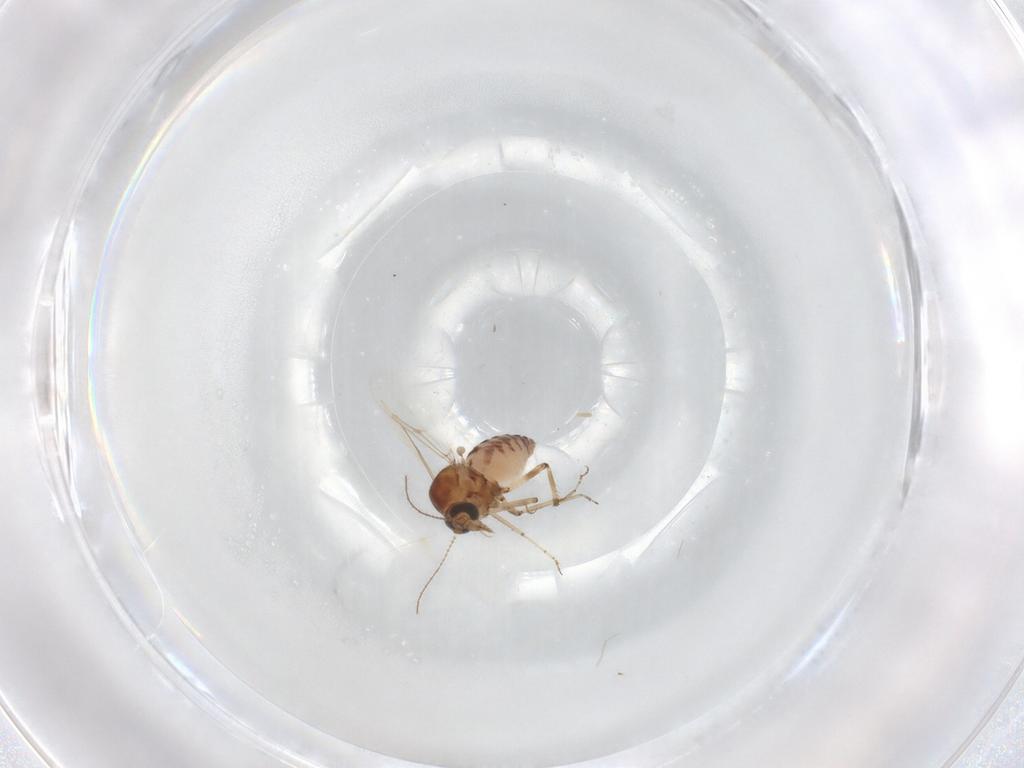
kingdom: Animalia
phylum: Arthropoda
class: Insecta
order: Diptera
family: Ceratopogonidae
